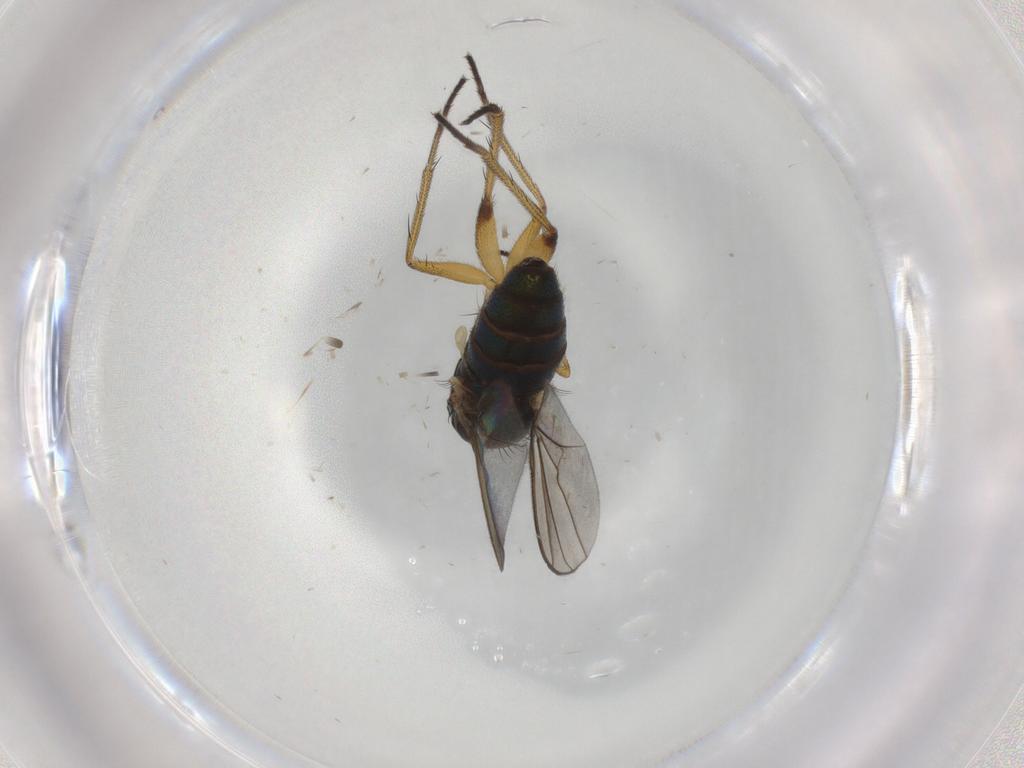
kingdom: Animalia
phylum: Arthropoda
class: Insecta
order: Diptera
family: Dolichopodidae
